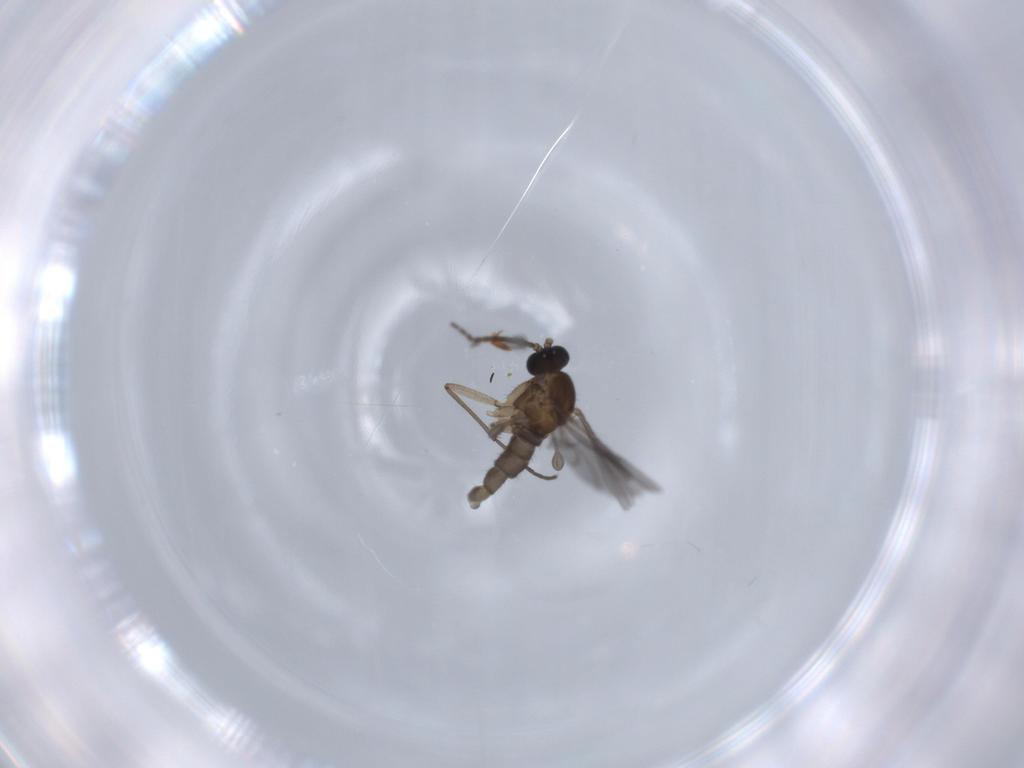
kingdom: Animalia
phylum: Arthropoda
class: Insecta
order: Diptera
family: Sciaridae
